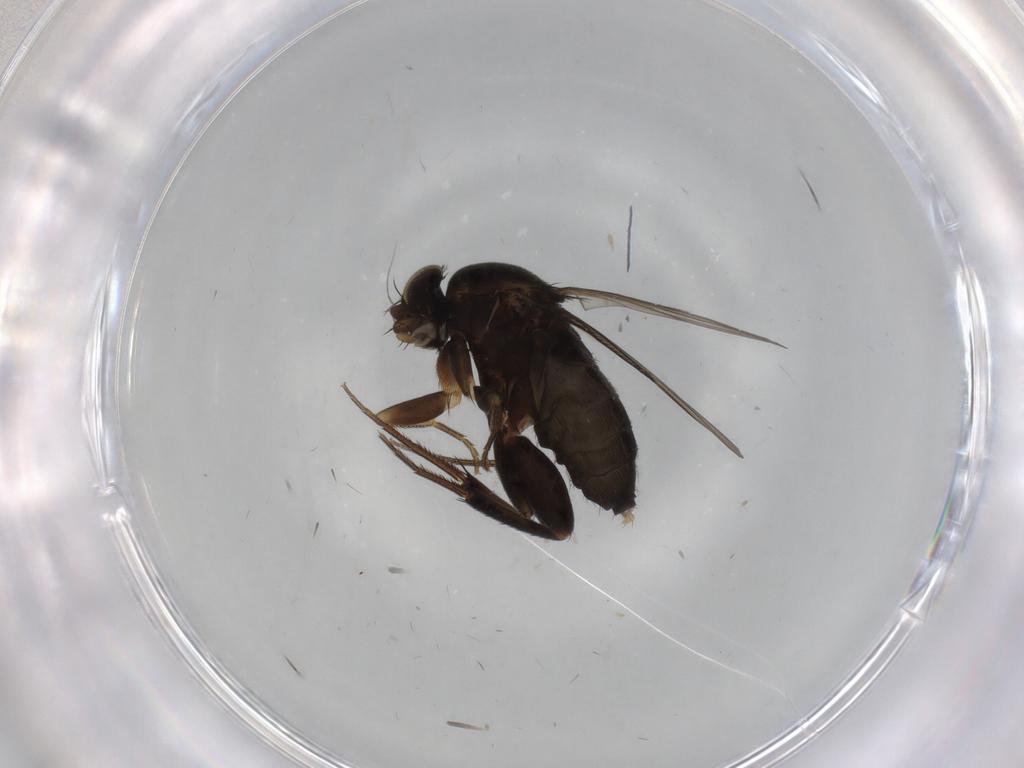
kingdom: Animalia
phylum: Arthropoda
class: Insecta
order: Diptera
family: Phoridae
